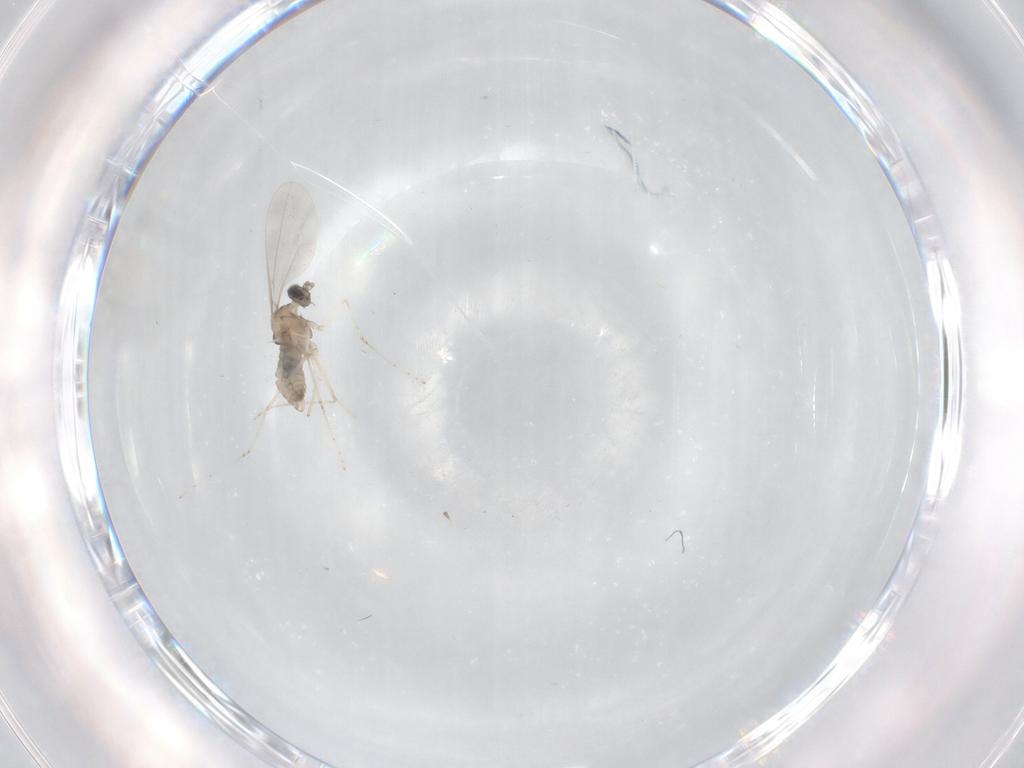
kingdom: Animalia
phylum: Arthropoda
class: Insecta
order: Diptera
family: Cecidomyiidae
